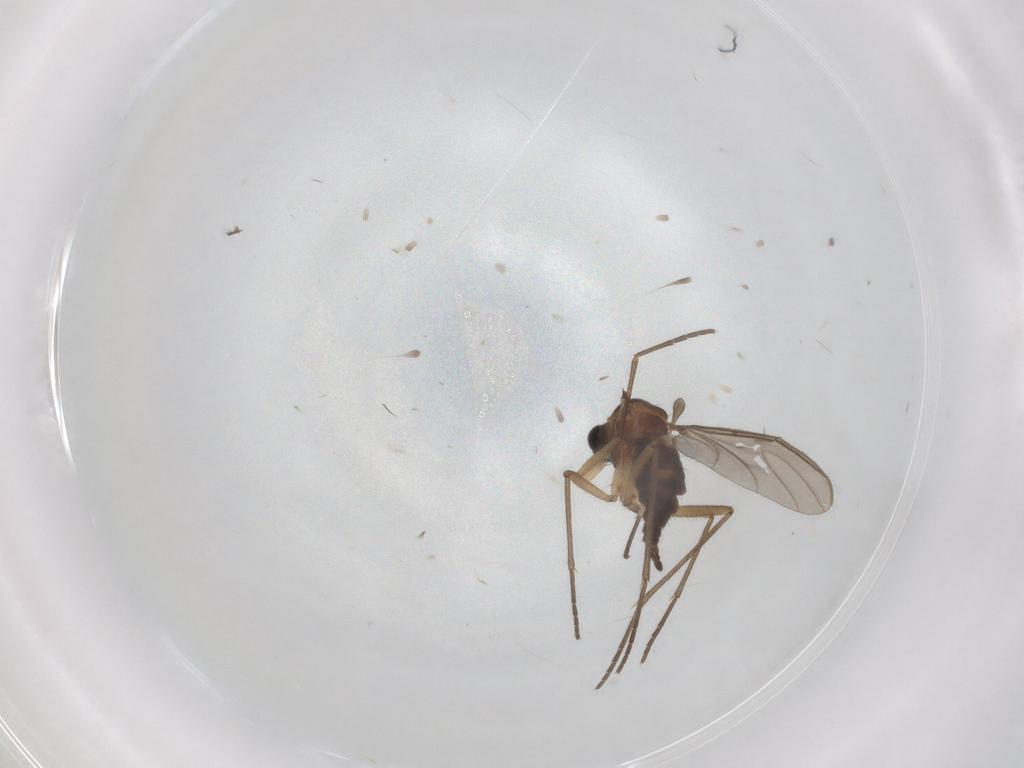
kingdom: Animalia
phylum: Arthropoda
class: Insecta
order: Diptera
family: Sciaridae
